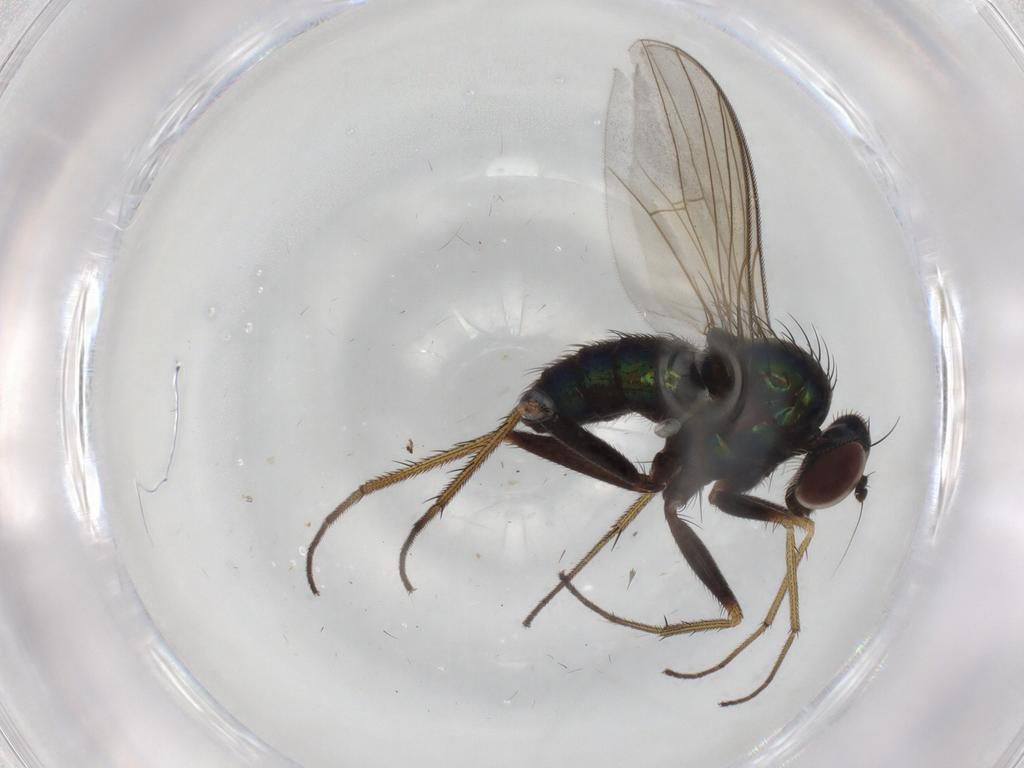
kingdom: Animalia
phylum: Arthropoda
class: Insecta
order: Diptera
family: Dolichopodidae
